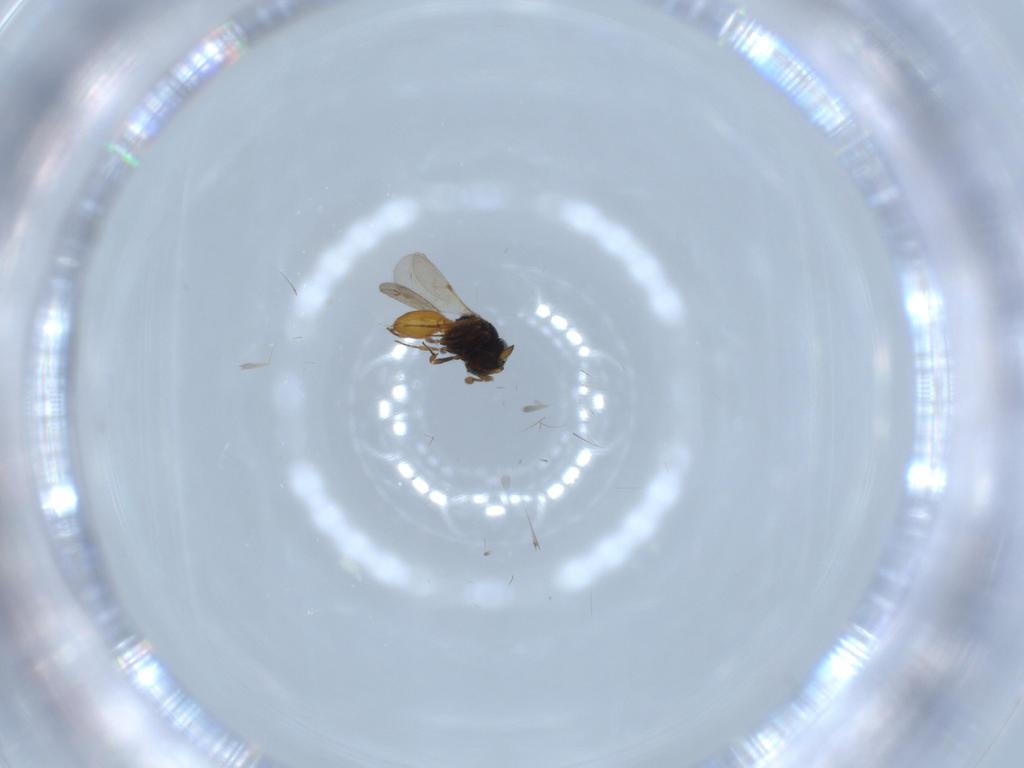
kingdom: Animalia
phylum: Arthropoda
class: Insecta
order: Hymenoptera
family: Scelionidae
